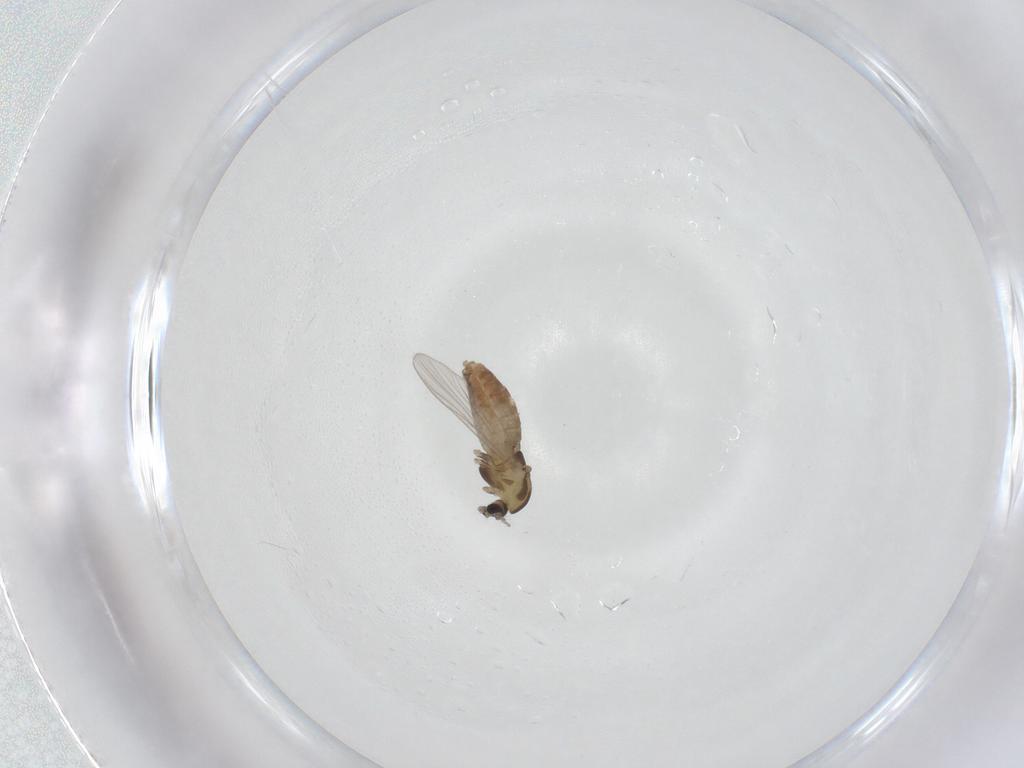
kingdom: Animalia
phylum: Arthropoda
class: Insecta
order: Diptera
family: Chironomidae
